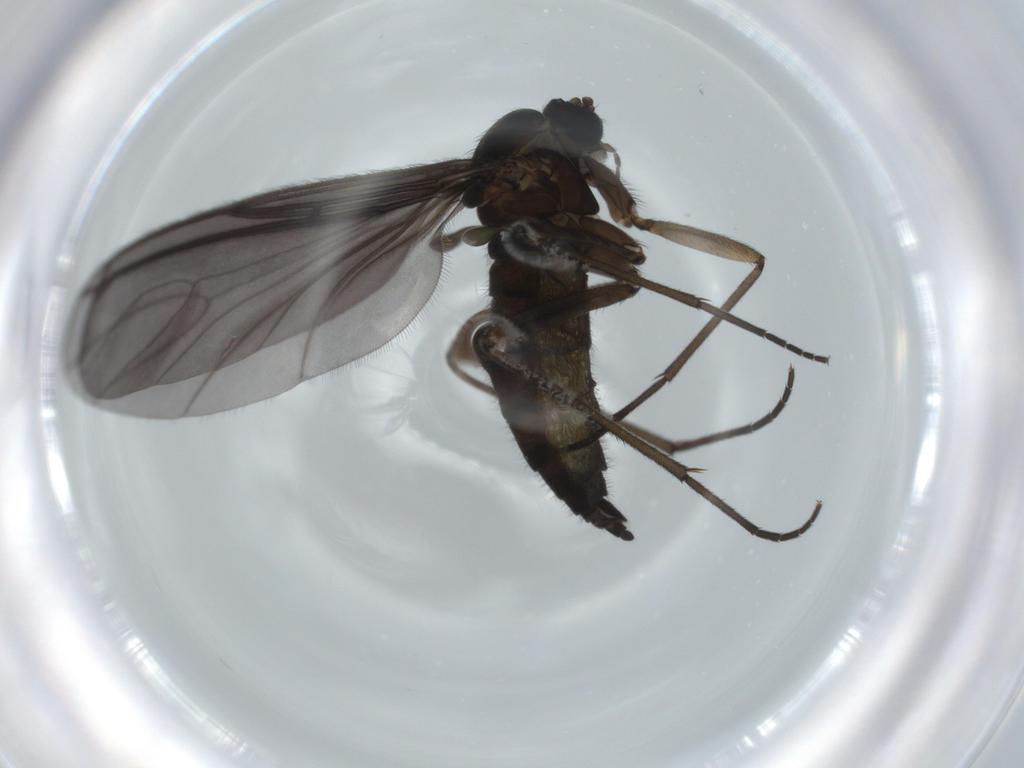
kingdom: Animalia
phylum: Arthropoda
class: Insecta
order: Diptera
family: Sciaridae
